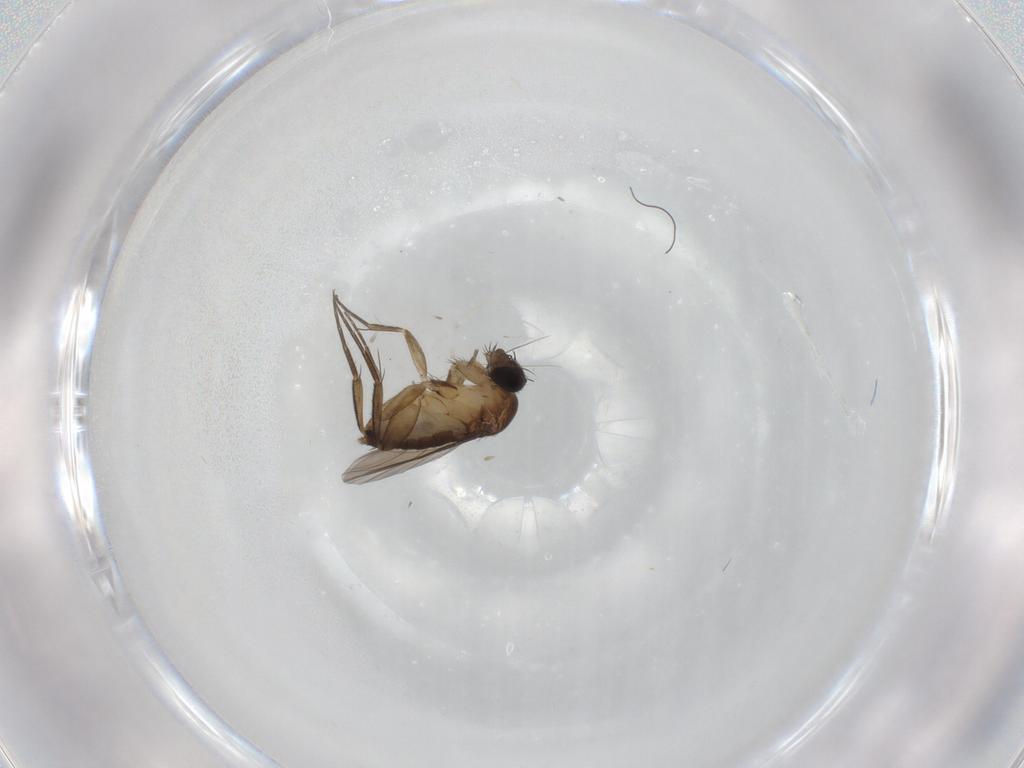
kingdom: Animalia
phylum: Arthropoda
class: Insecta
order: Diptera
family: Phoridae
